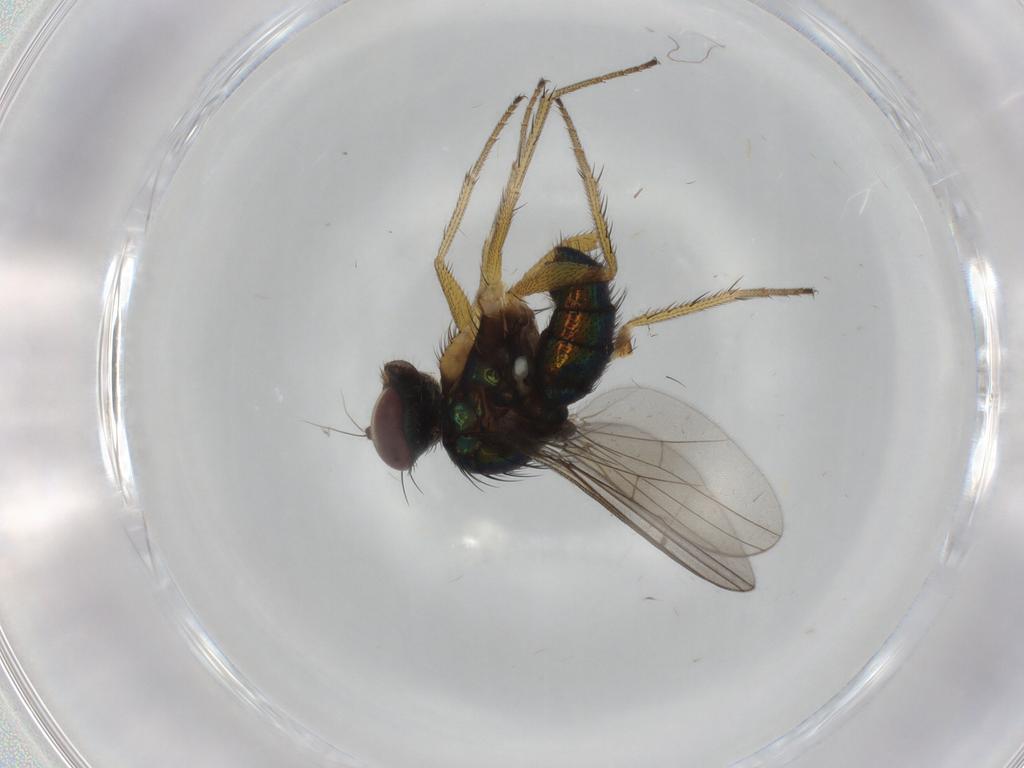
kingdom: Animalia
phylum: Arthropoda
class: Insecta
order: Diptera
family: Dolichopodidae
